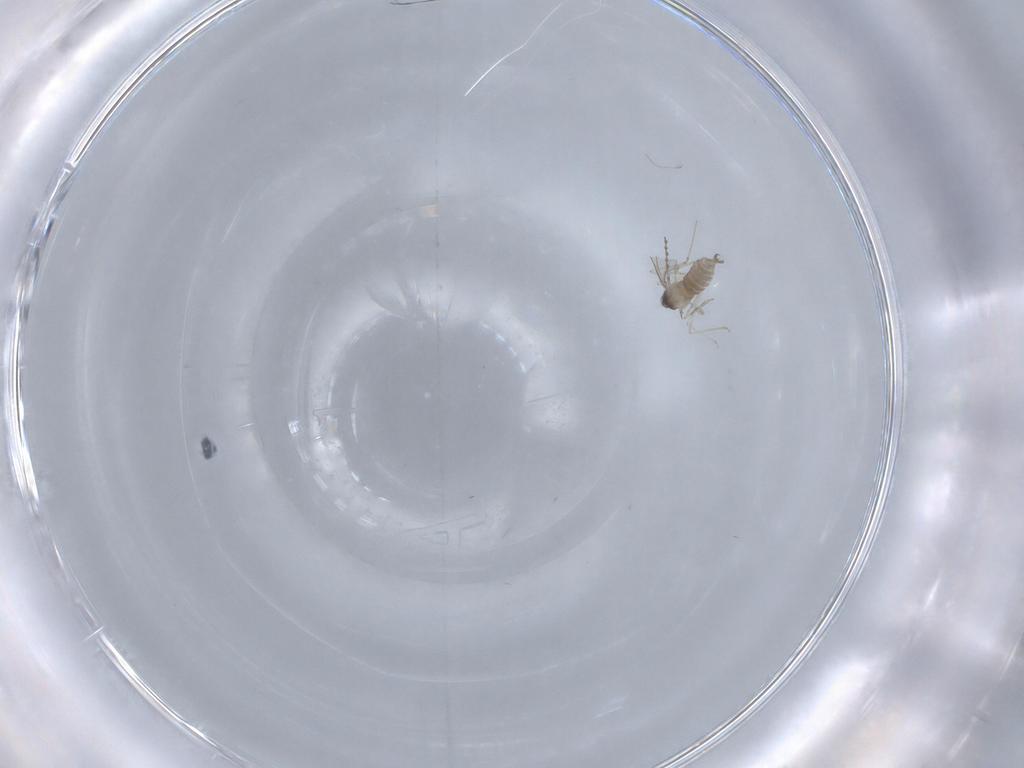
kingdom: Animalia
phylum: Arthropoda
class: Insecta
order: Diptera
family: Cecidomyiidae
